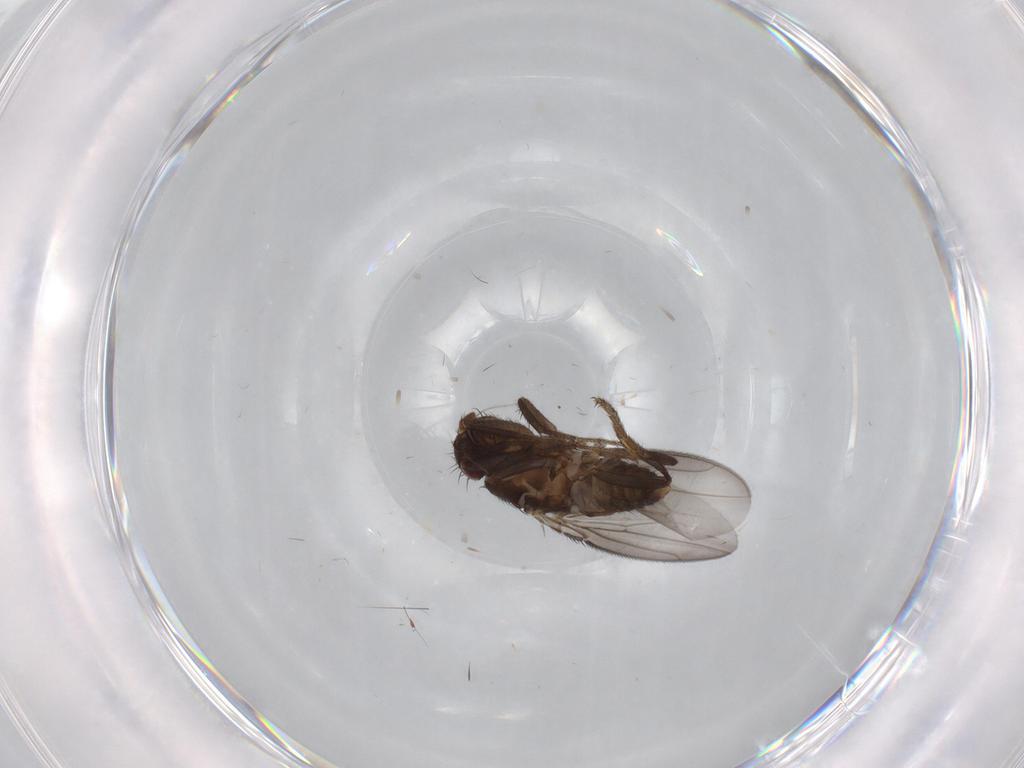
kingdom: Animalia
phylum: Arthropoda
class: Insecta
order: Diptera
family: Sphaeroceridae
